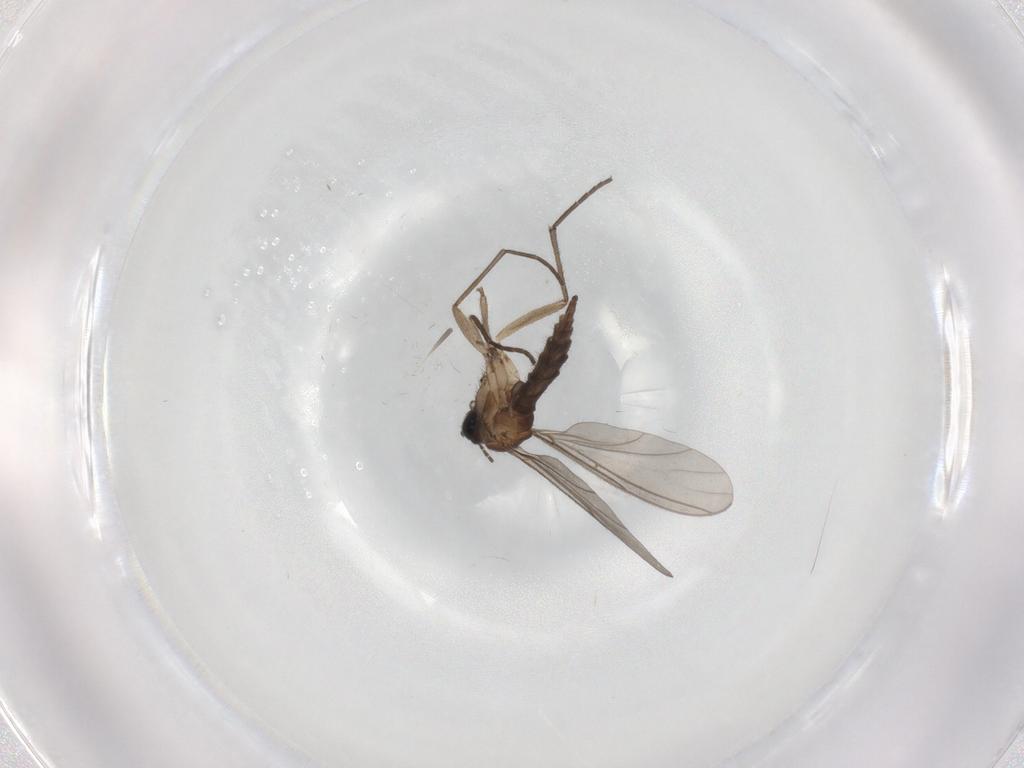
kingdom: Animalia
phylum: Arthropoda
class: Insecta
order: Diptera
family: Sciaridae
